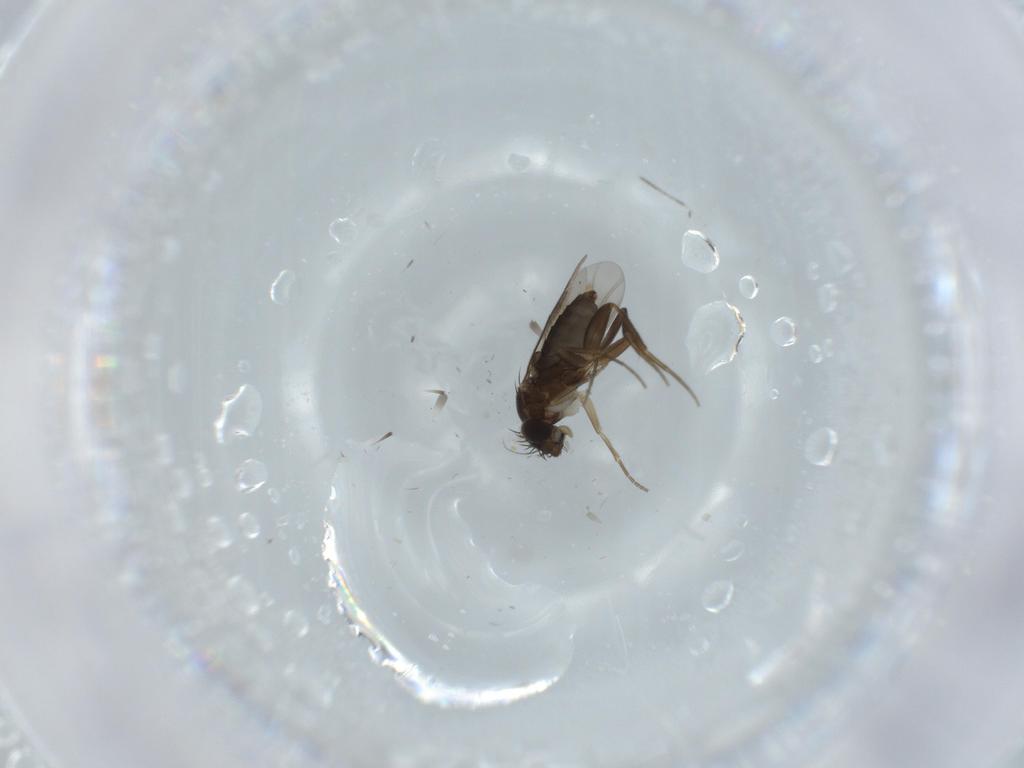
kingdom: Animalia
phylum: Arthropoda
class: Insecta
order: Diptera
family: Phoridae
